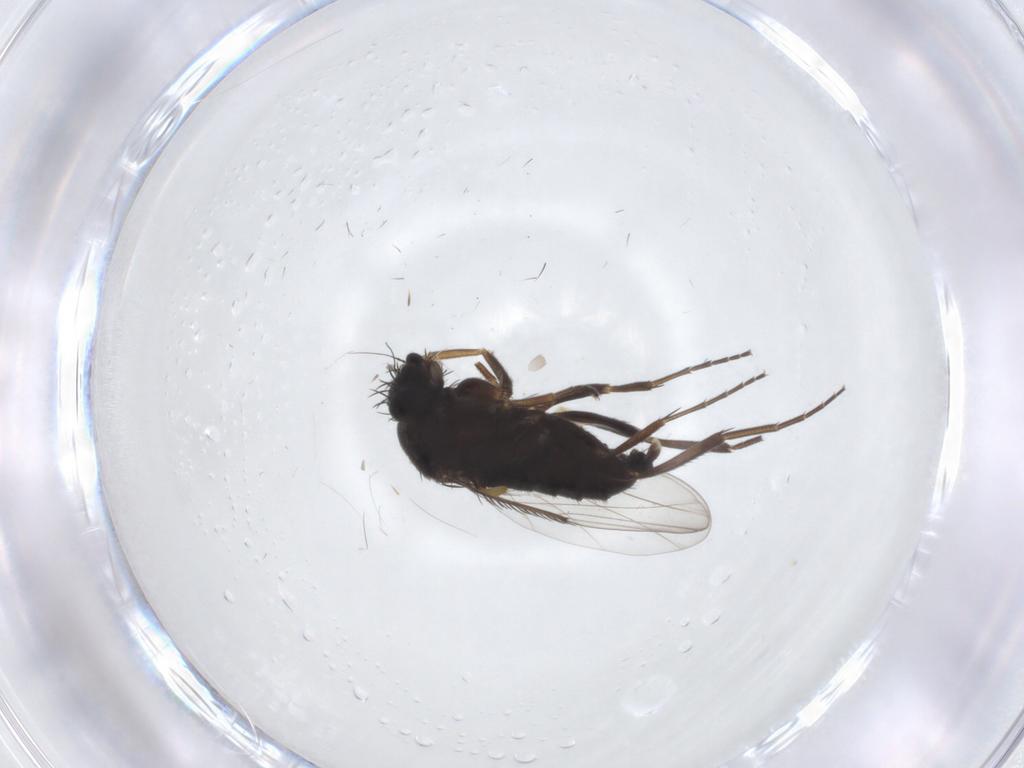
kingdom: Animalia
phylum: Arthropoda
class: Insecta
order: Diptera
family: Phoridae
